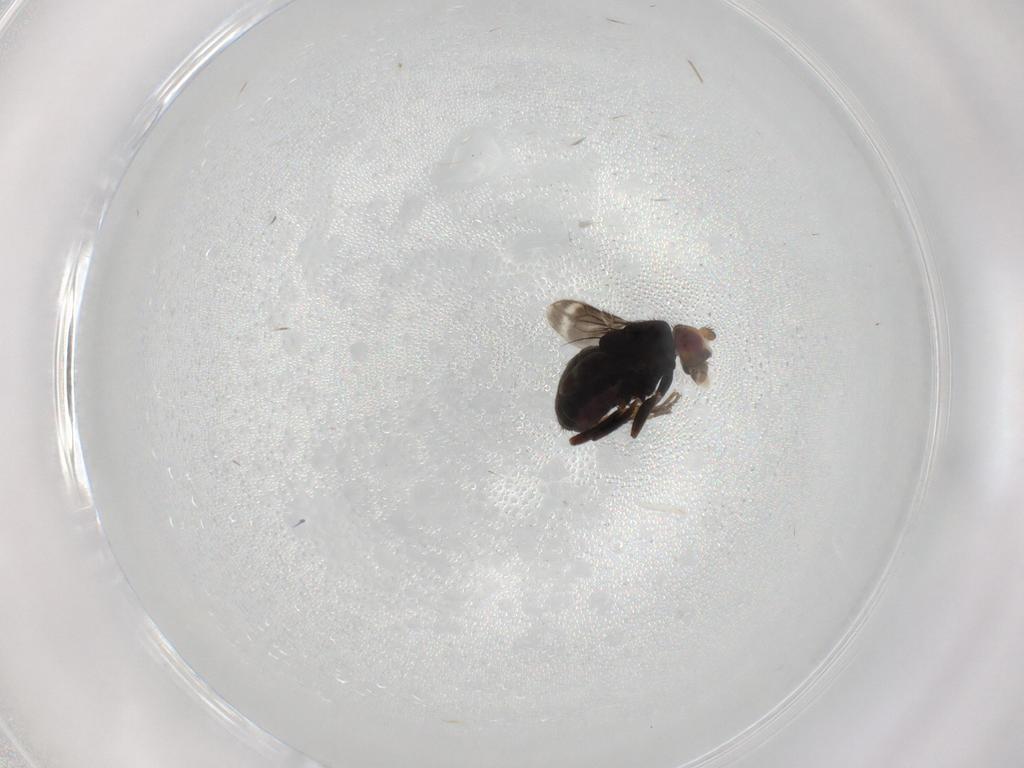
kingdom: Animalia
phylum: Arthropoda
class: Insecta
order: Diptera
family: Sphaeroceridae
